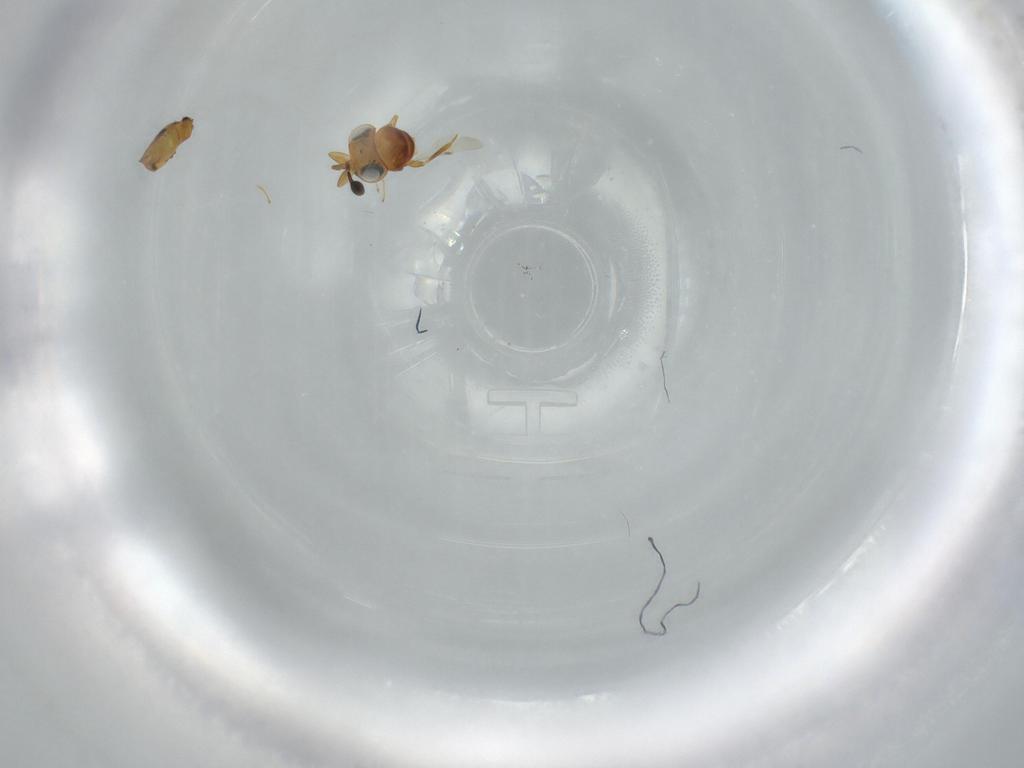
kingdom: Animalia
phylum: Arthropoda
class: Insecta
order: Hymenoptera
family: Scelionidae
